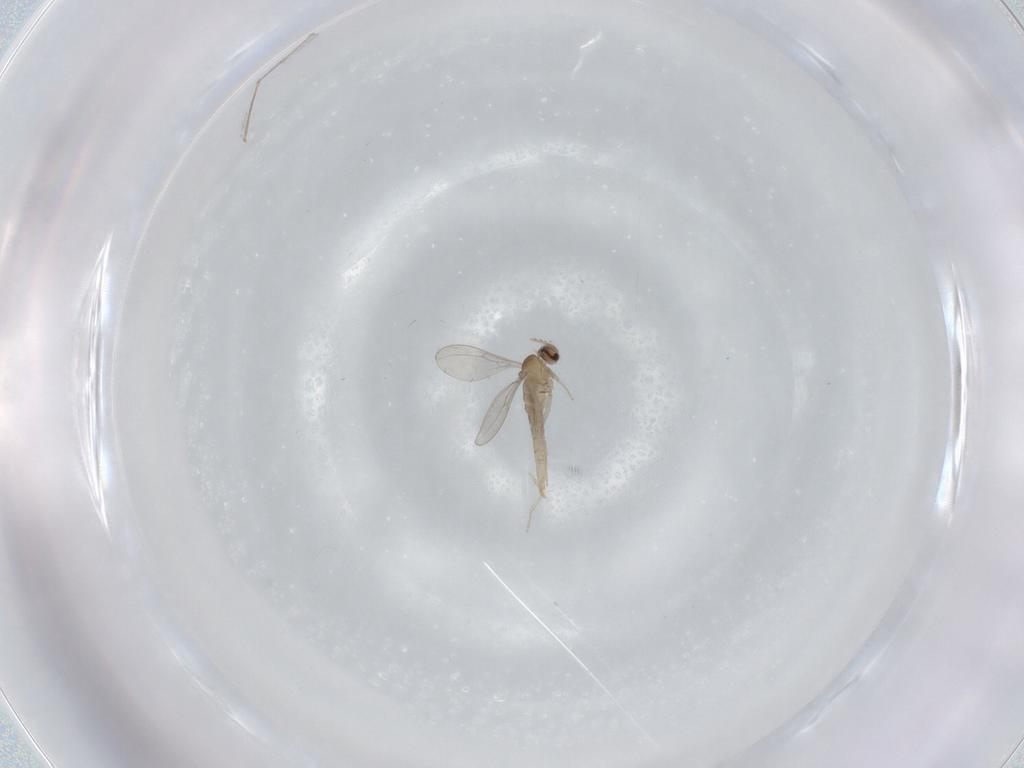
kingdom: Animalia
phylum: Arthropoda
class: Insecta
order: Diptera
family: Cecidomyiidae
